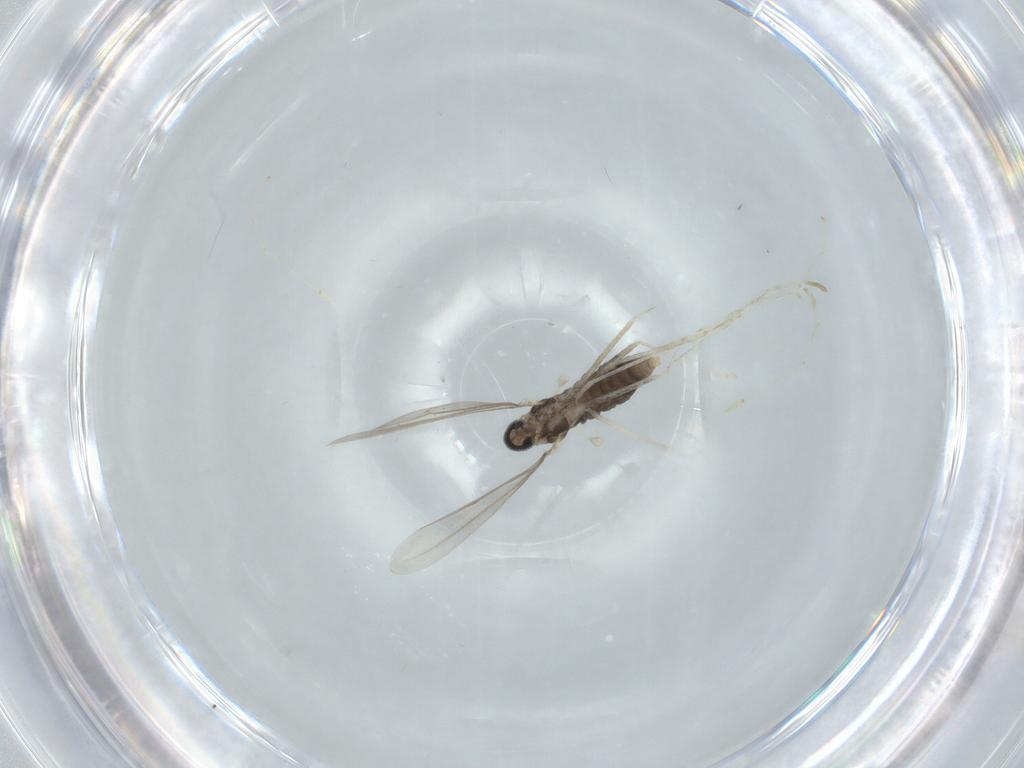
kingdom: Animalia
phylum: Arthropoda
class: Insecta
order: Diptera
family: Cecidomyiidae
